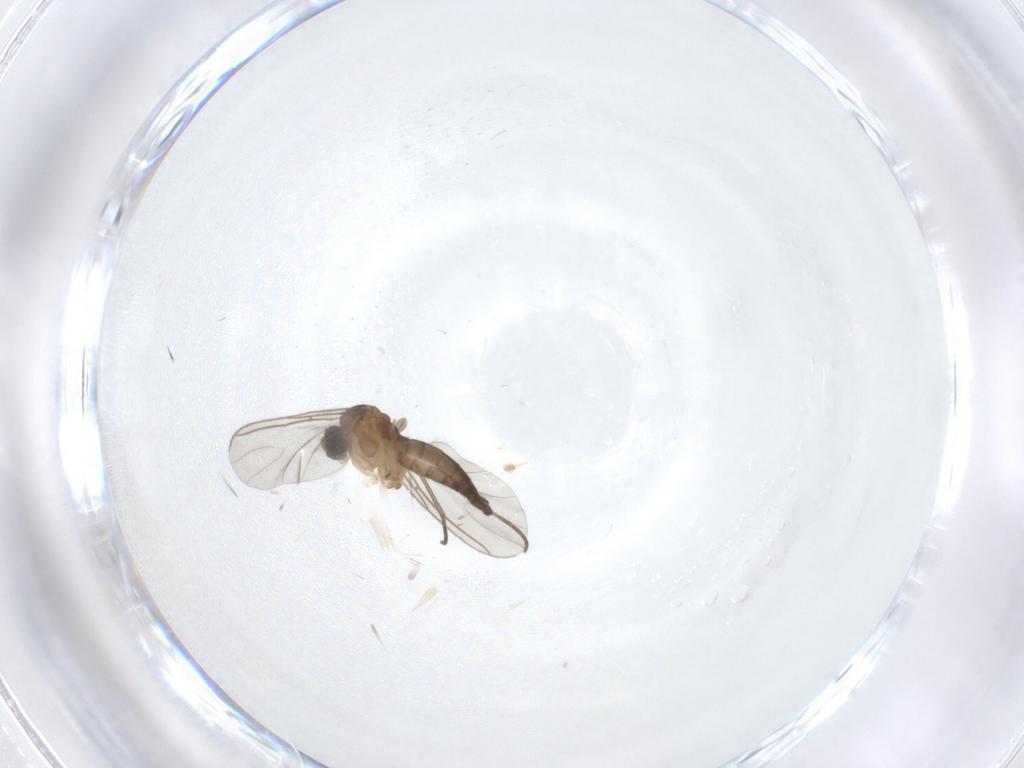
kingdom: Animalia
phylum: Arthropoda
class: Insecta
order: Diptera
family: Sciaridae
